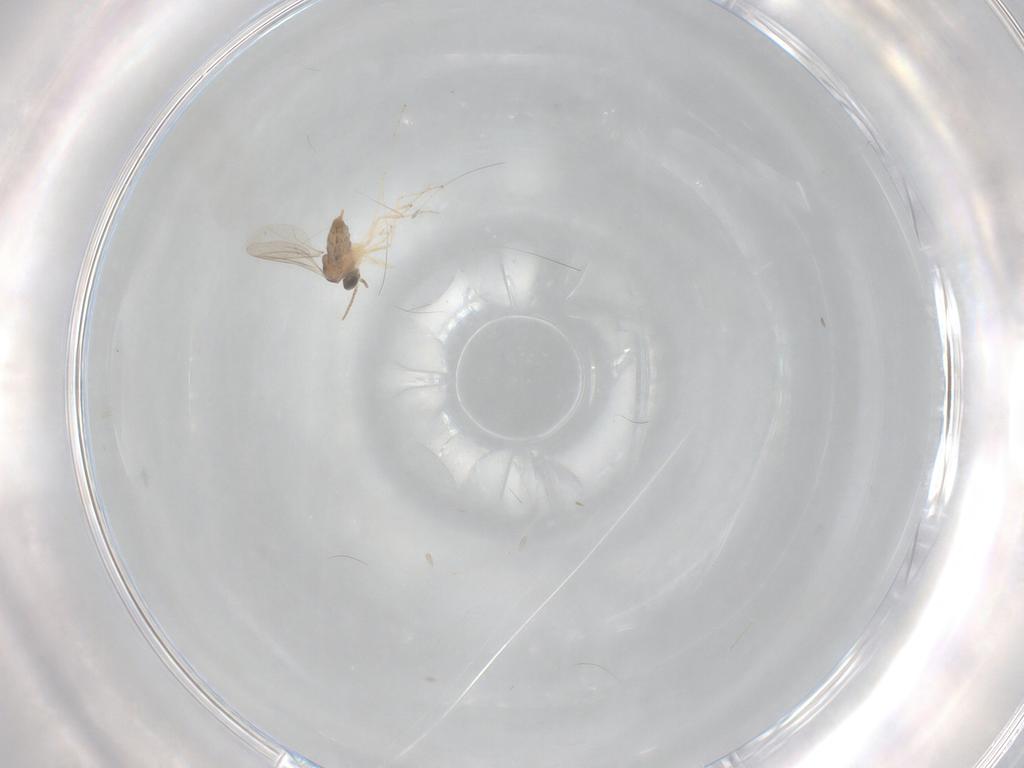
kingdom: Animalia
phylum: Arthropoda
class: Insecta
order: Diptera
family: Cecidomyiidae
